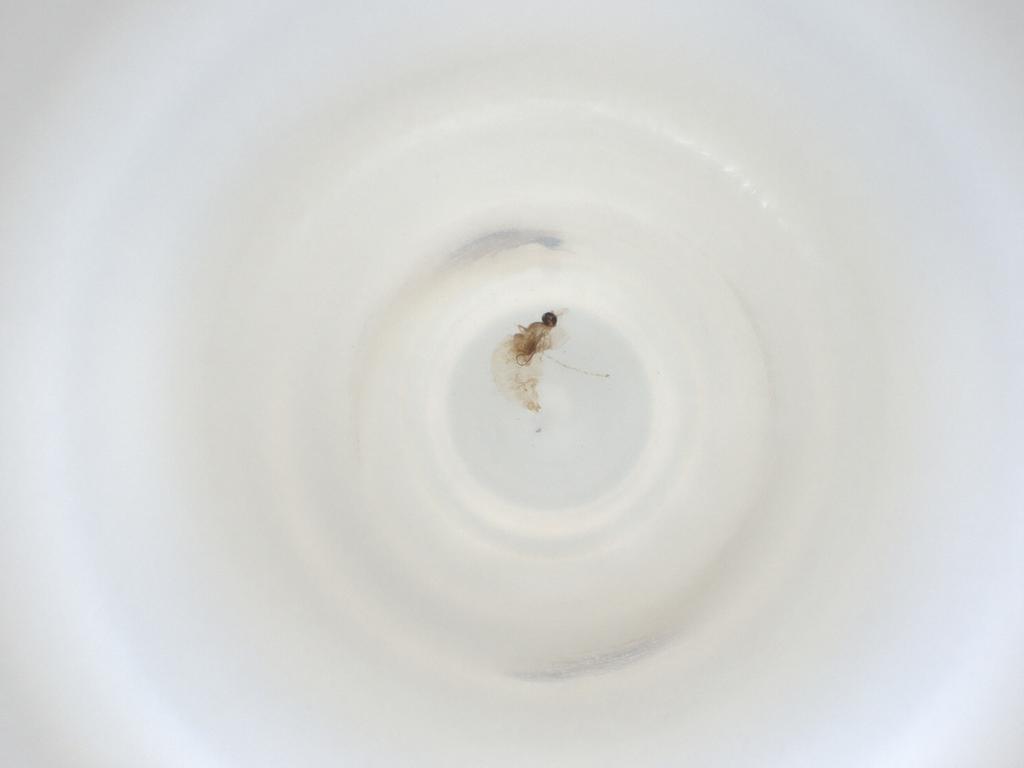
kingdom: Animalia
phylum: Arthropoda
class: Insecta
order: Diptera
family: Cecidomyiidae
